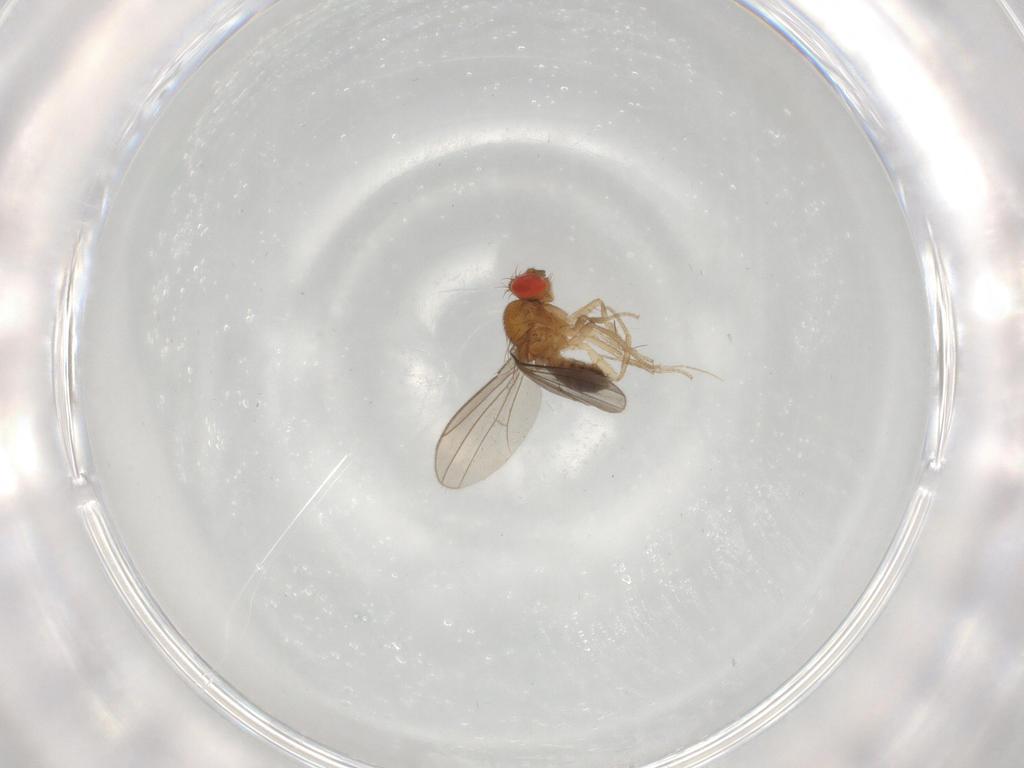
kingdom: Animalia
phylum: Arthropoda
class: Insecta
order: Diptera
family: Drosophilidae
